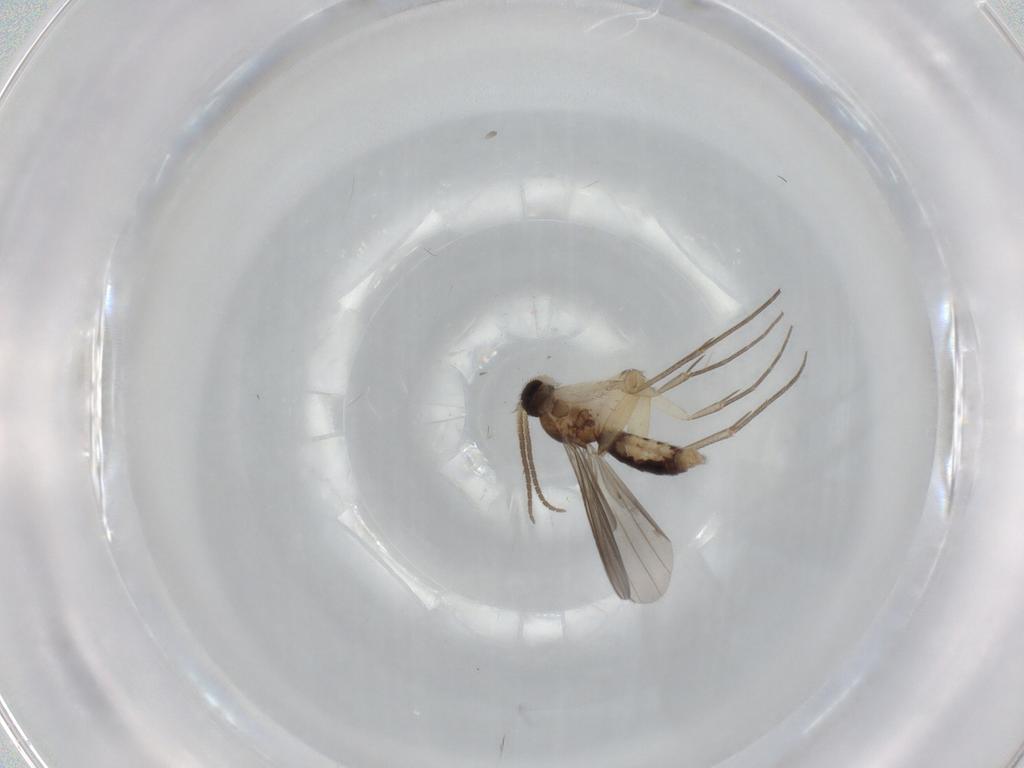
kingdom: Animalia
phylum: Arthropoda
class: Insecta
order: Diptera
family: Mycetophilidae
